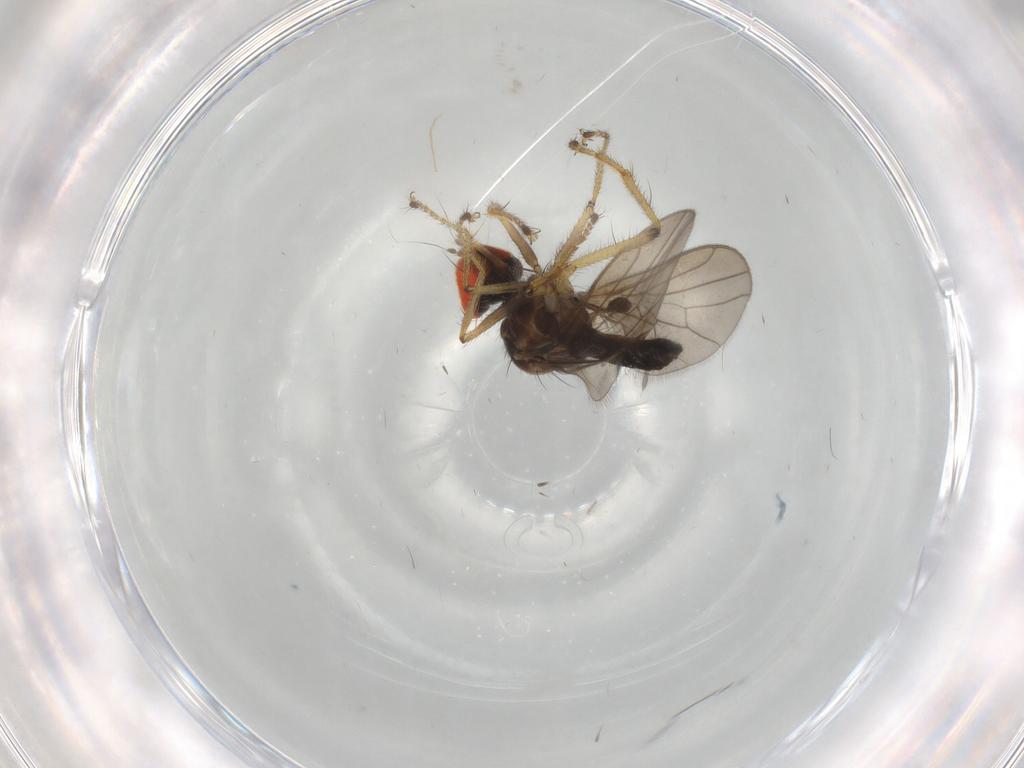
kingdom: Animalia
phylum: Arthropoda
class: Insecta
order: Diptera
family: Hybotidae
